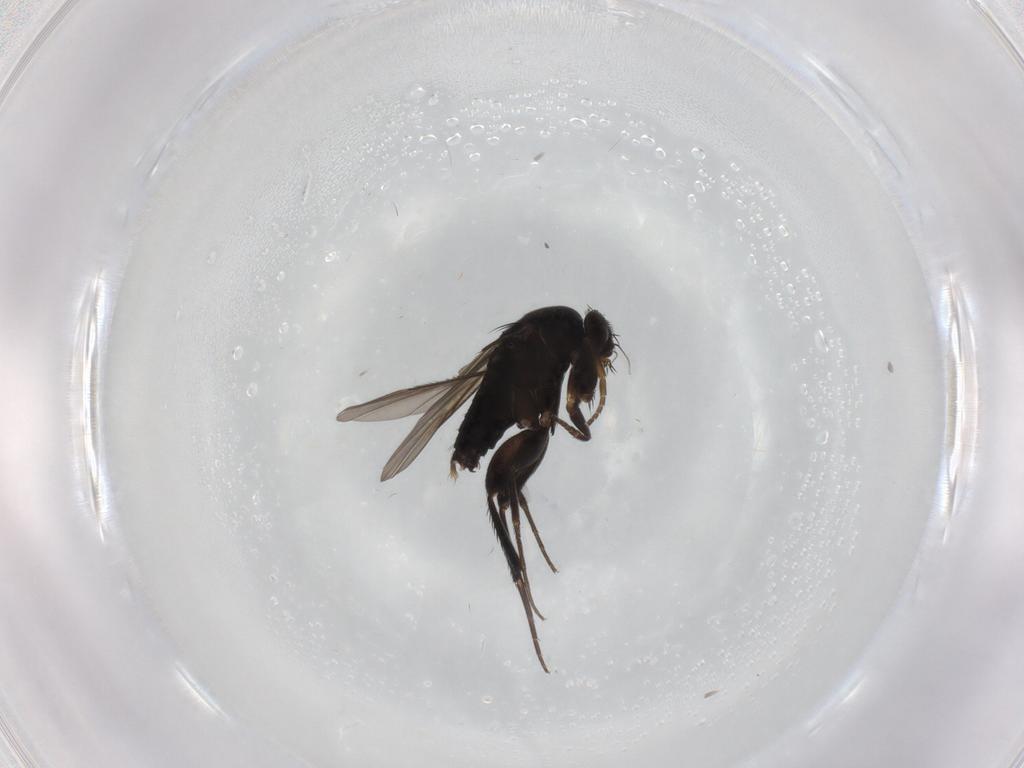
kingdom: Animalia
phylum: Arthropoda
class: Insecta
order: Diptera
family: Phoridae
